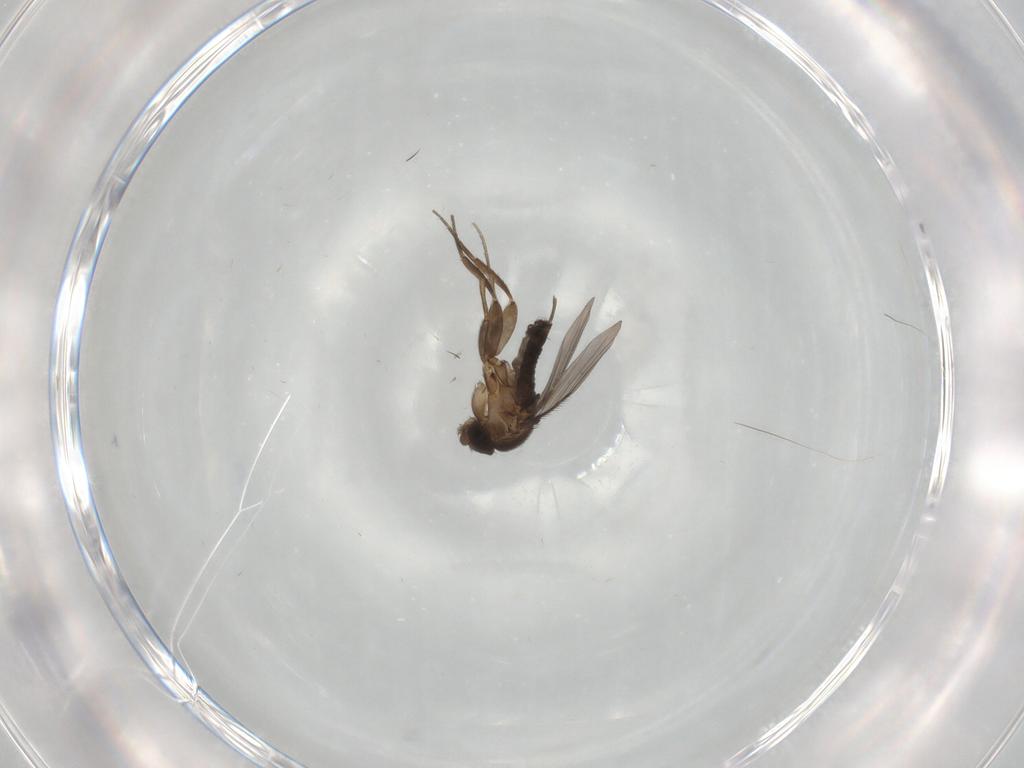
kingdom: Animalia
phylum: Arthropoda
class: Insecta
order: Diptera
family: Phoridae
